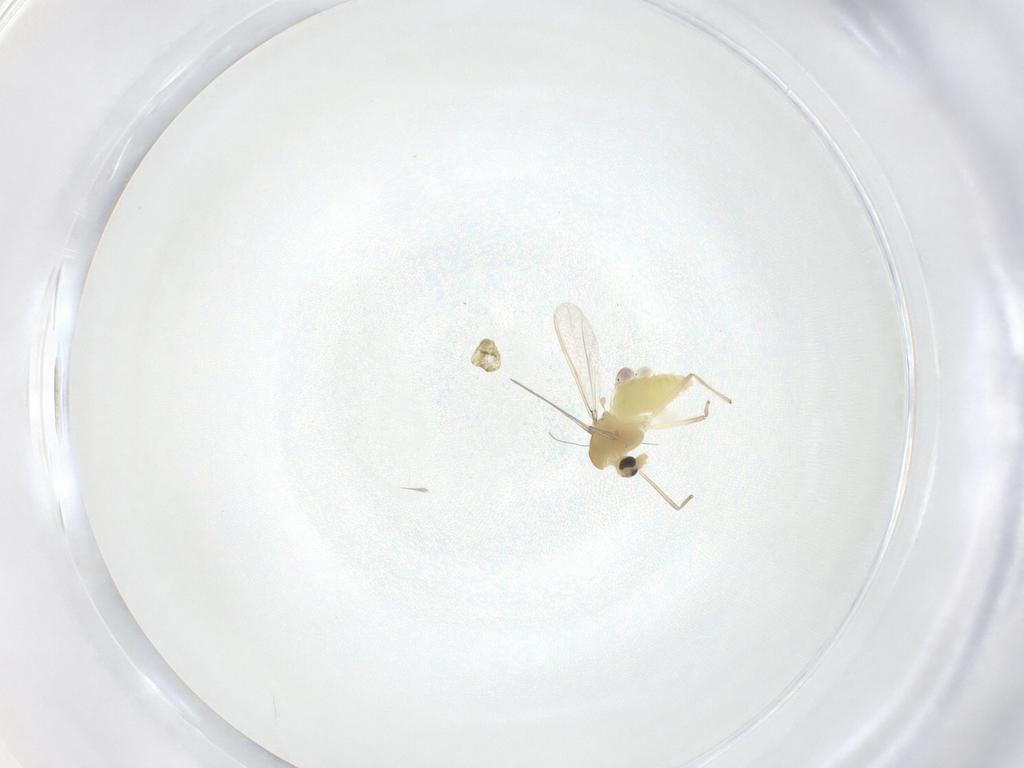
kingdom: Animalia
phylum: Arthropoda
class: Insecta
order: Diptera
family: Chironomidae
